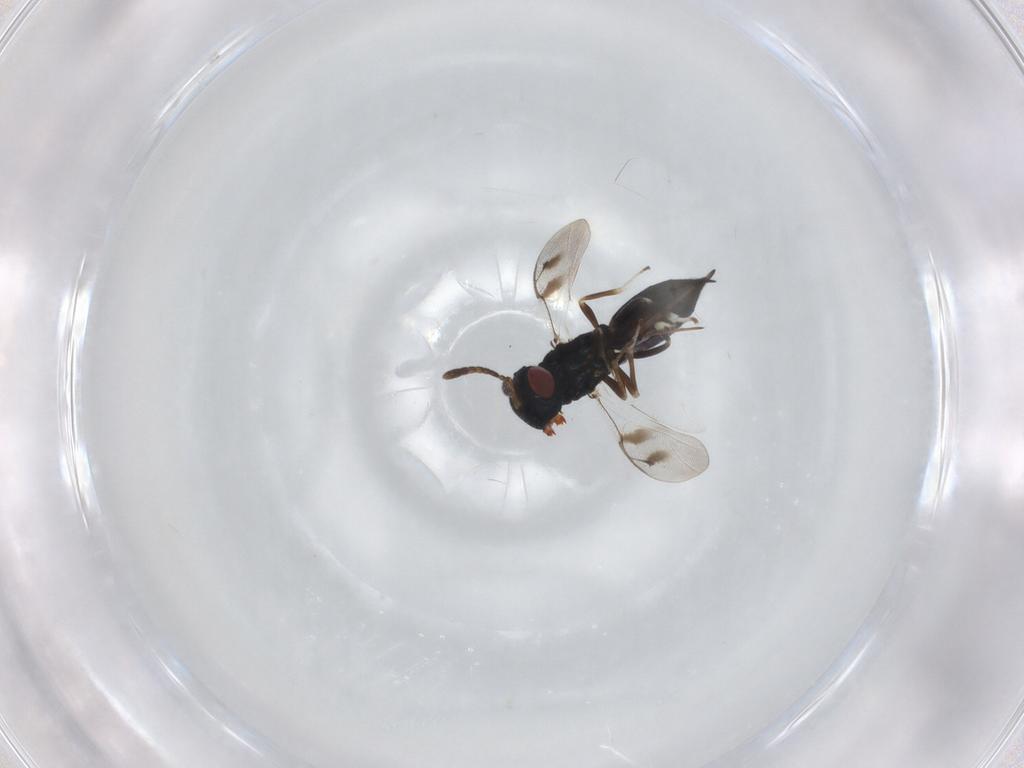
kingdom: Animalia
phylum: Arthropoda
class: Insecta
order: Hymenoptera
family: Pteromalidae
